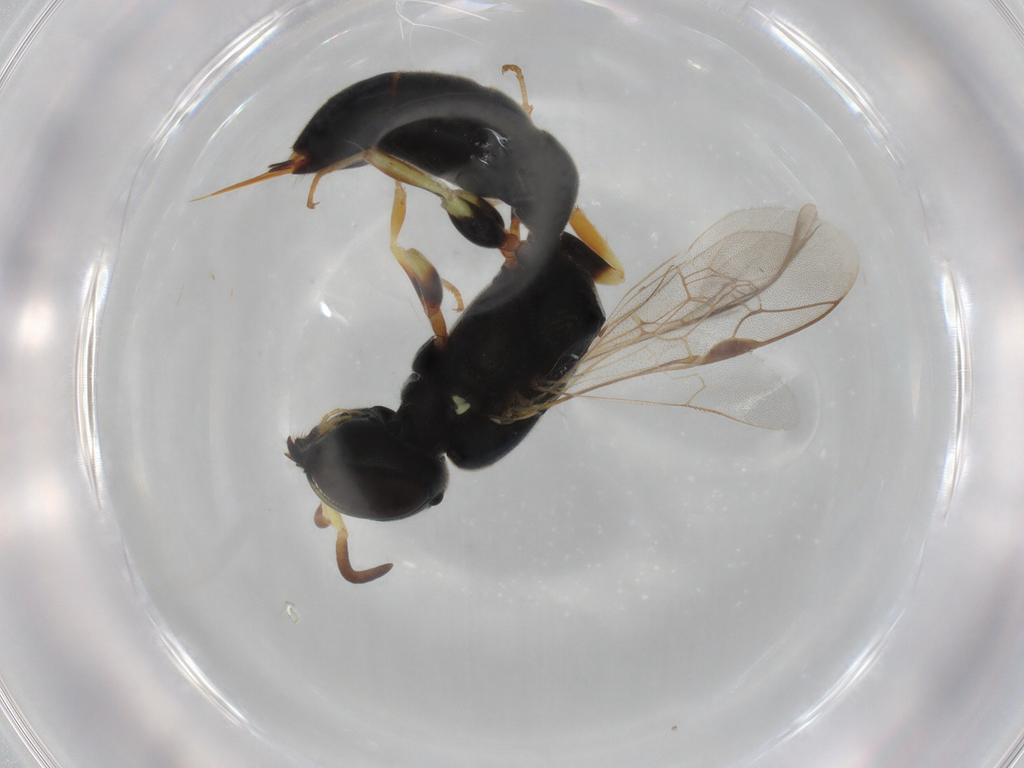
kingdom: Animalia
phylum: Arthropoda
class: Insecta
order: Hymenoptera
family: Pemphredonidae
